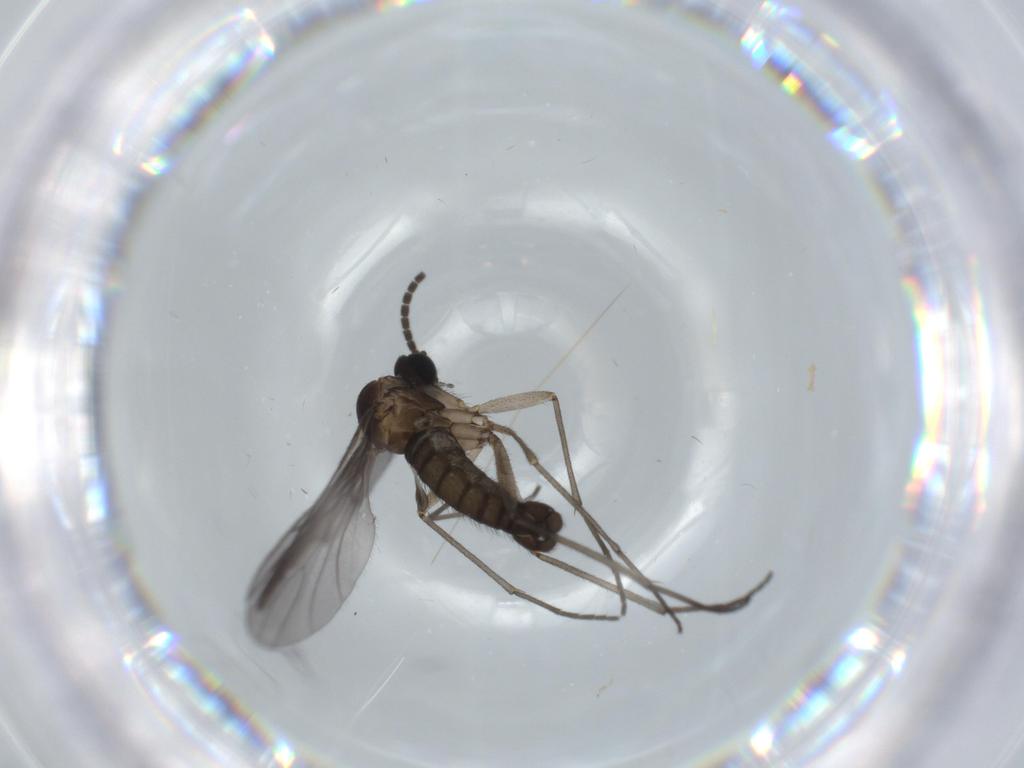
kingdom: Animalia
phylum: Arthropoda
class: Insecta
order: Diptera
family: Sciaridae
